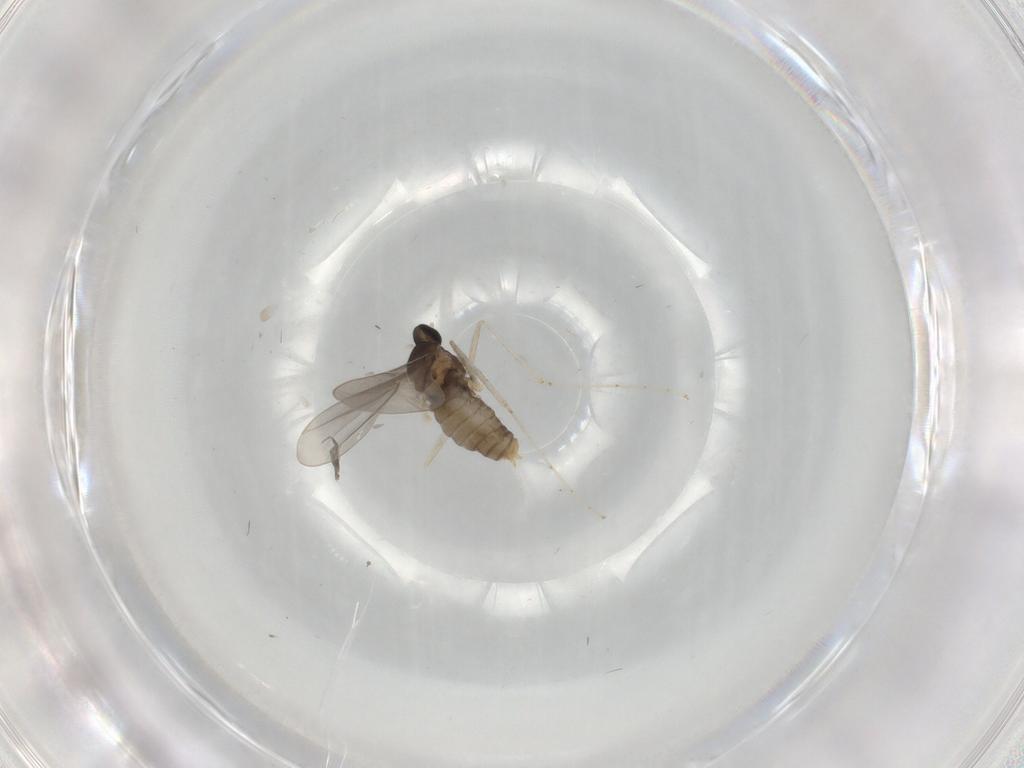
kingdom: Animalia
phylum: Arthropoda
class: Insecta
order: Diptera
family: Cecidomyiidae
